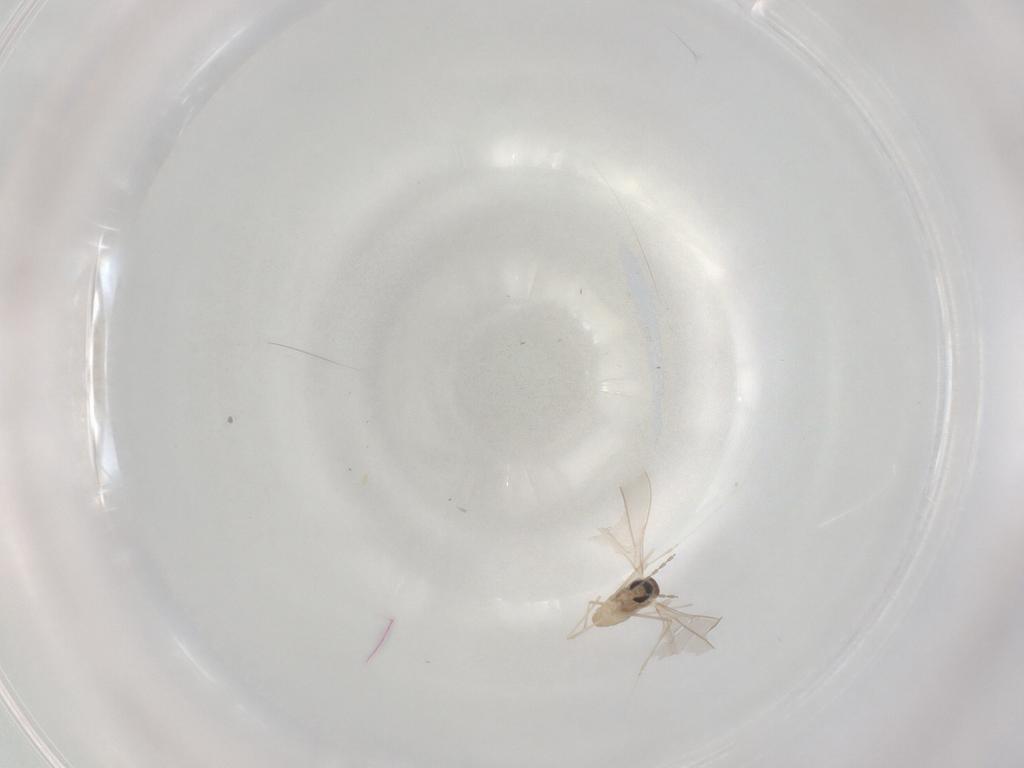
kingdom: Animalia
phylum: Arthropoda
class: Insecta
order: Diptera
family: Cecidomyiidae
